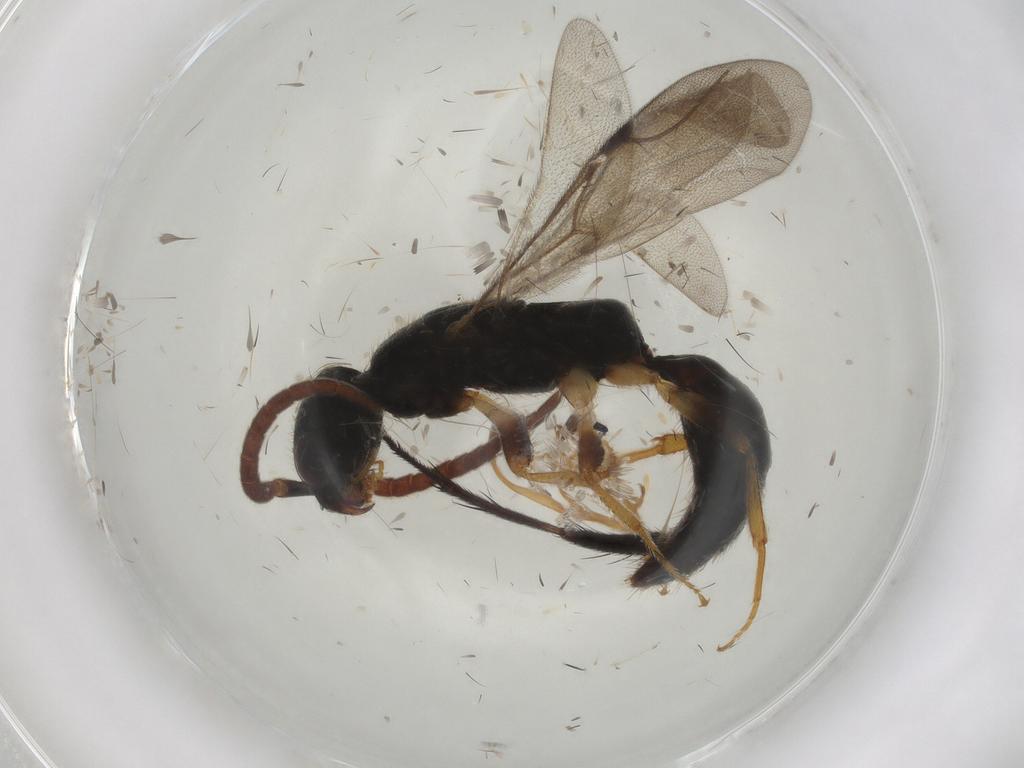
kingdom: Animalia
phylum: Arthropoda
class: Insecta
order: Hymenoptera
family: Bethylidae
